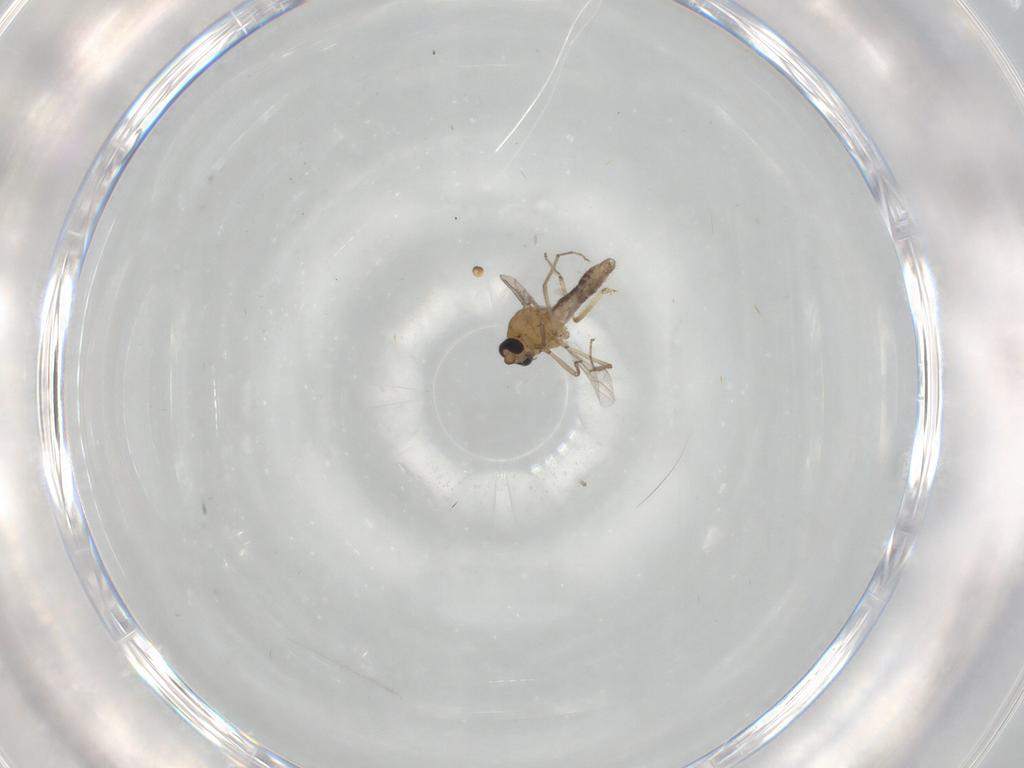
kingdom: Animalia
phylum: Arthropoda
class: Insecta
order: Diptera
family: Ceratopogonidae
